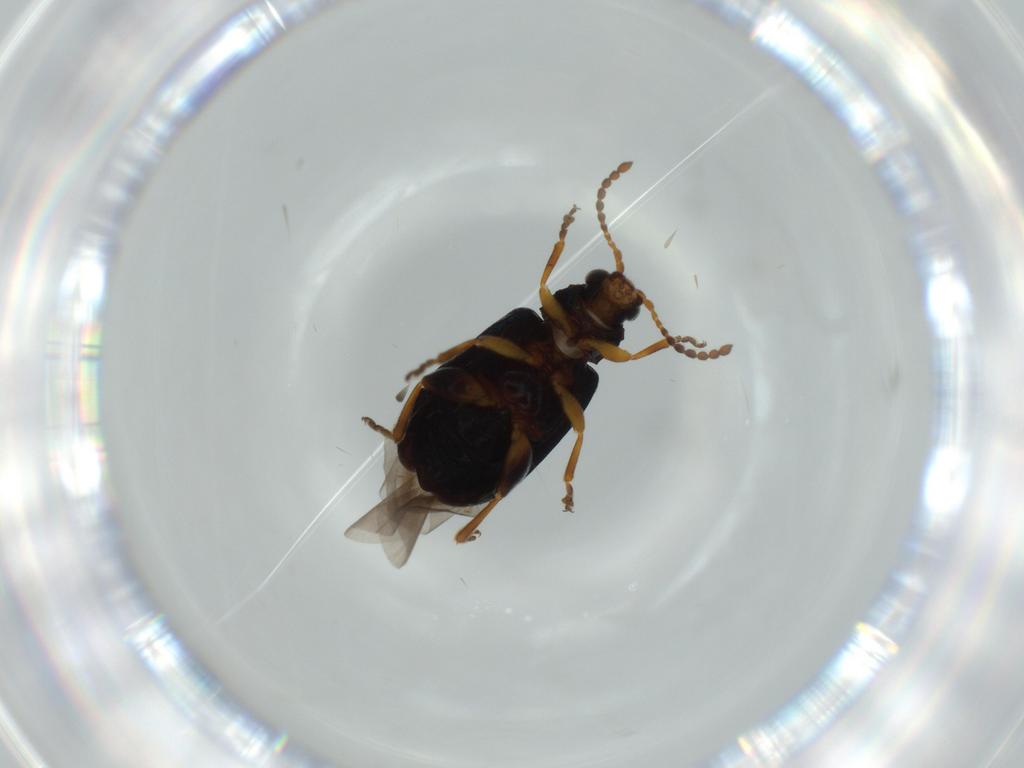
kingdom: Animalia
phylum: Arthropoda
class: Insecta
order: Coleoptera
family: Chrysomelidae
